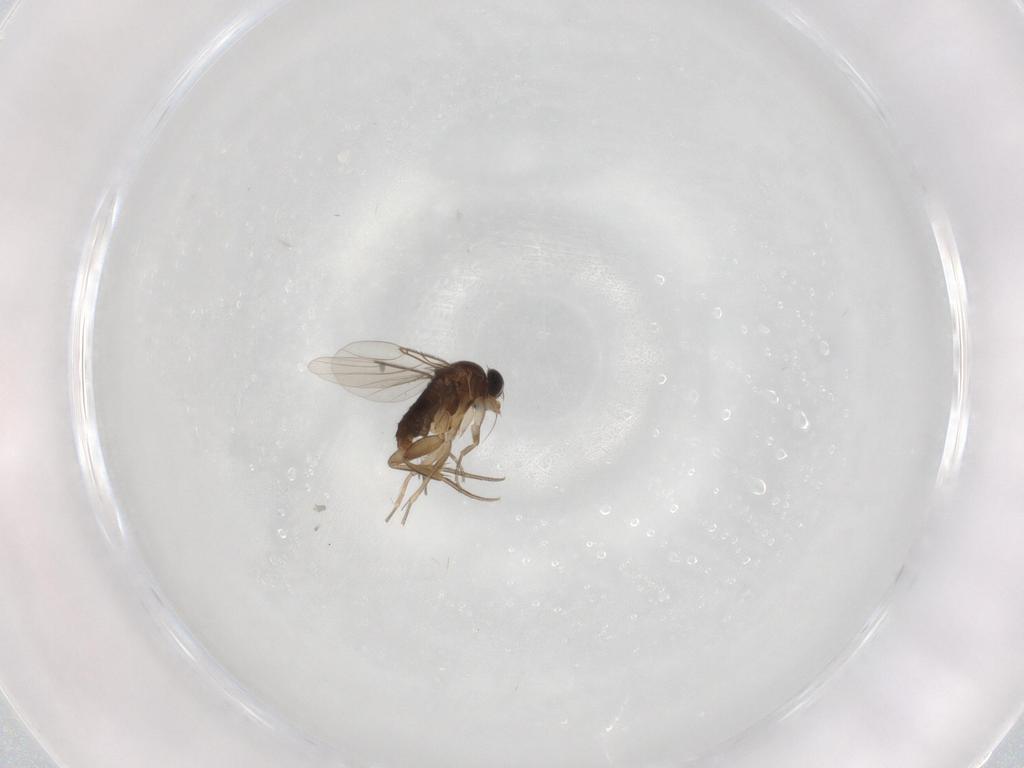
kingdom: Animalia
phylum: Arthropoda
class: Insecta
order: Diptera
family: Phoridae
